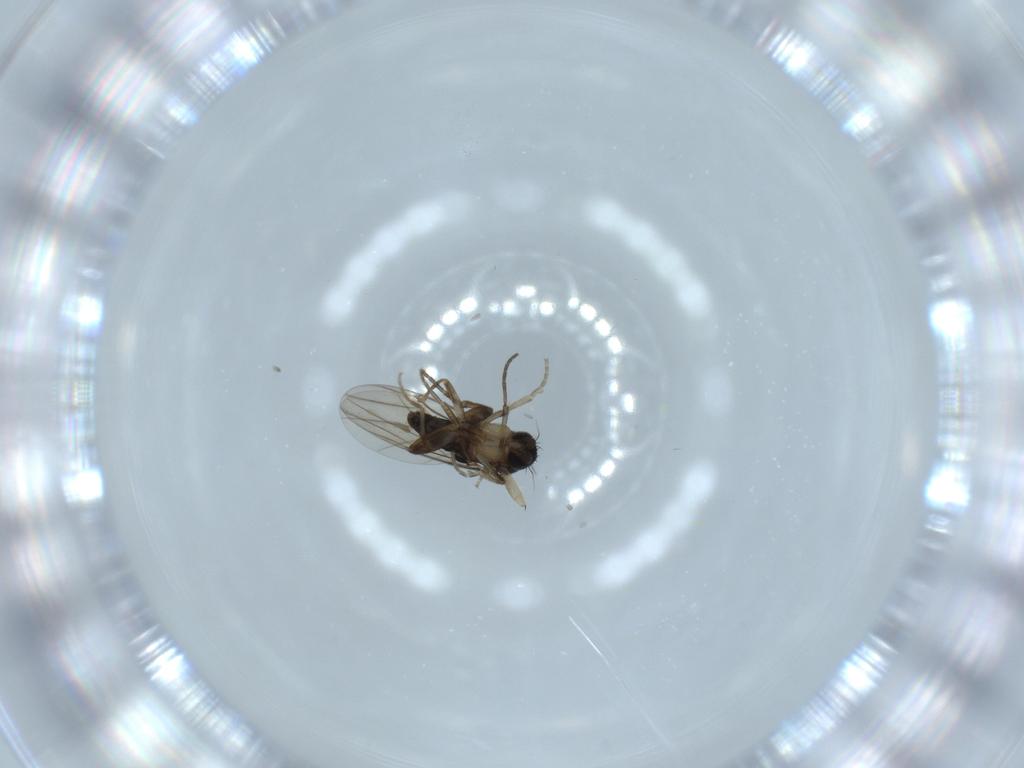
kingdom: Animalia
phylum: Arthropoda
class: Insecta
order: Diptera
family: Phoridae
